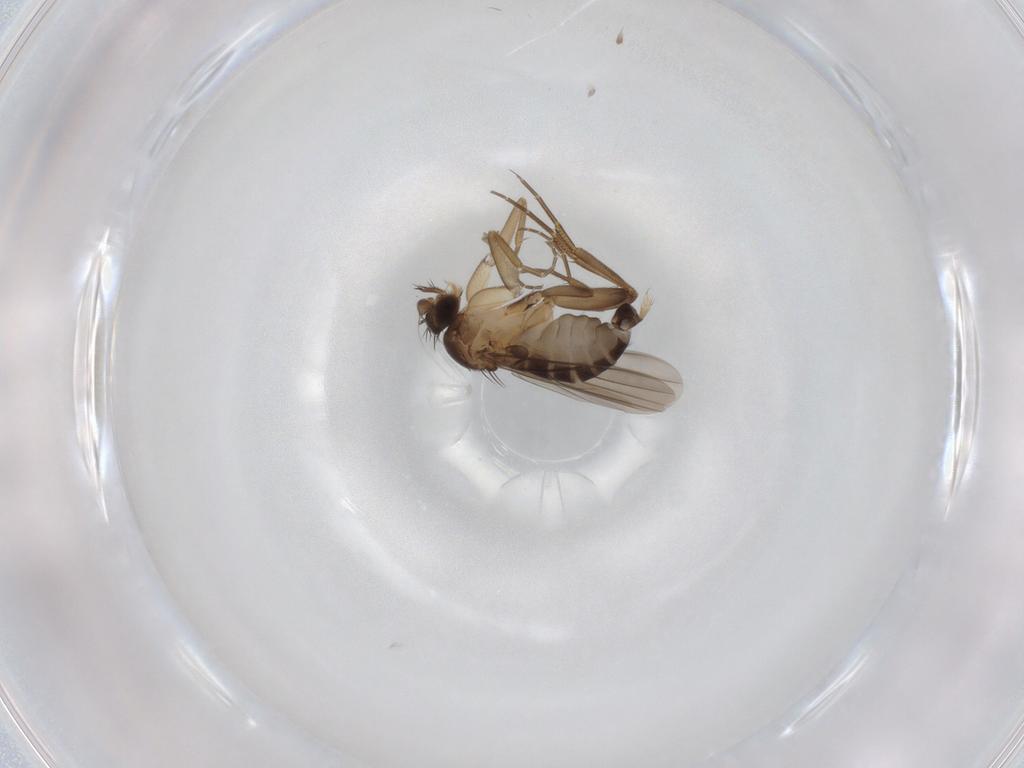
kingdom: Animalia
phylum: Arthropoda
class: Insecta
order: Diptera
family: Phoridae
